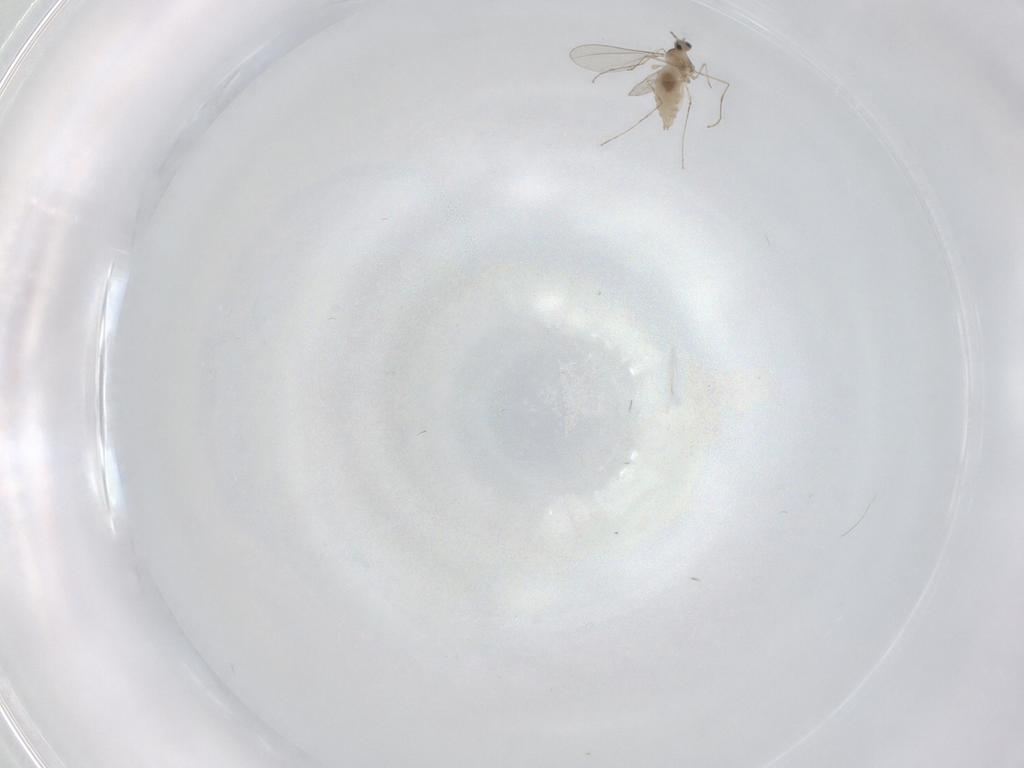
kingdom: Animalia
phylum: Arthropoda
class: Insecta
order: Diptera
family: Cecidomyiidae
